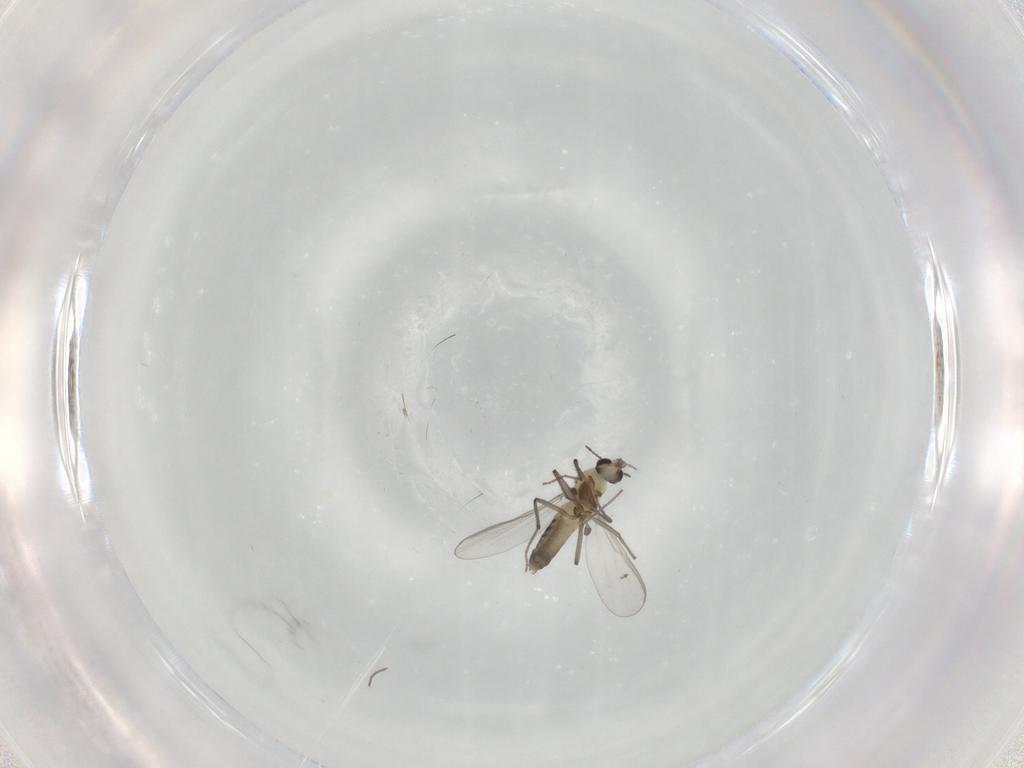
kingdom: Animalia
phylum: Arthropoda
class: Insecta
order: Diptera
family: Chironomidae
